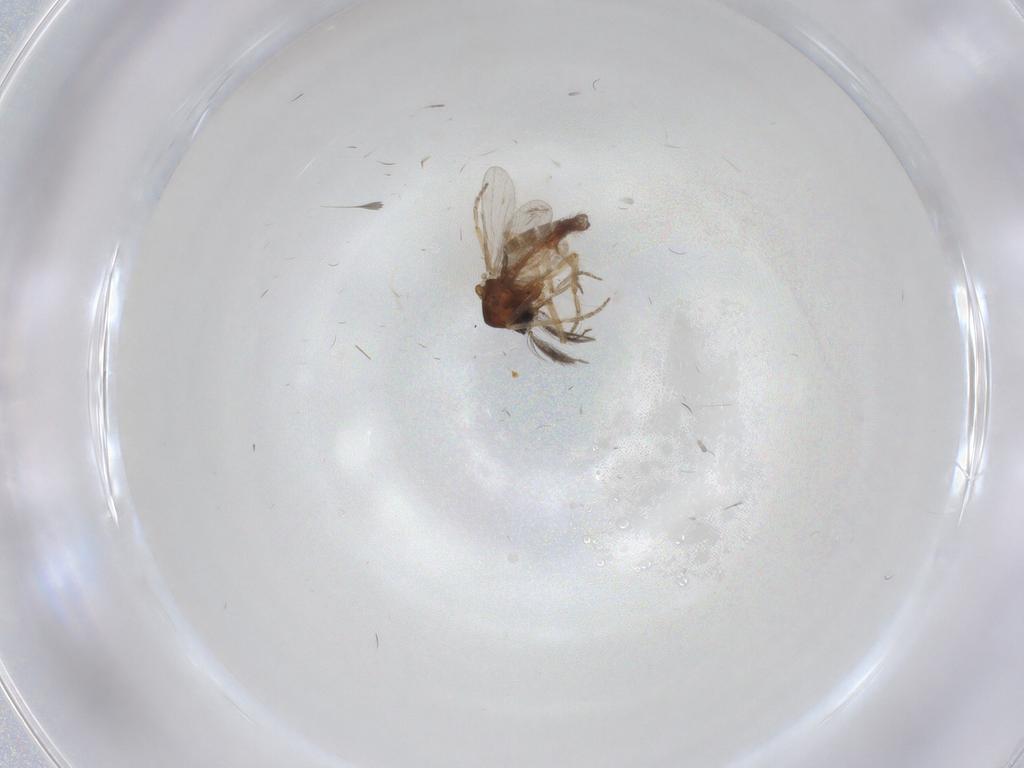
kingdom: Animalia
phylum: Arthropoda
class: Insecta
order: Diptera
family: Ceratopogonidae
